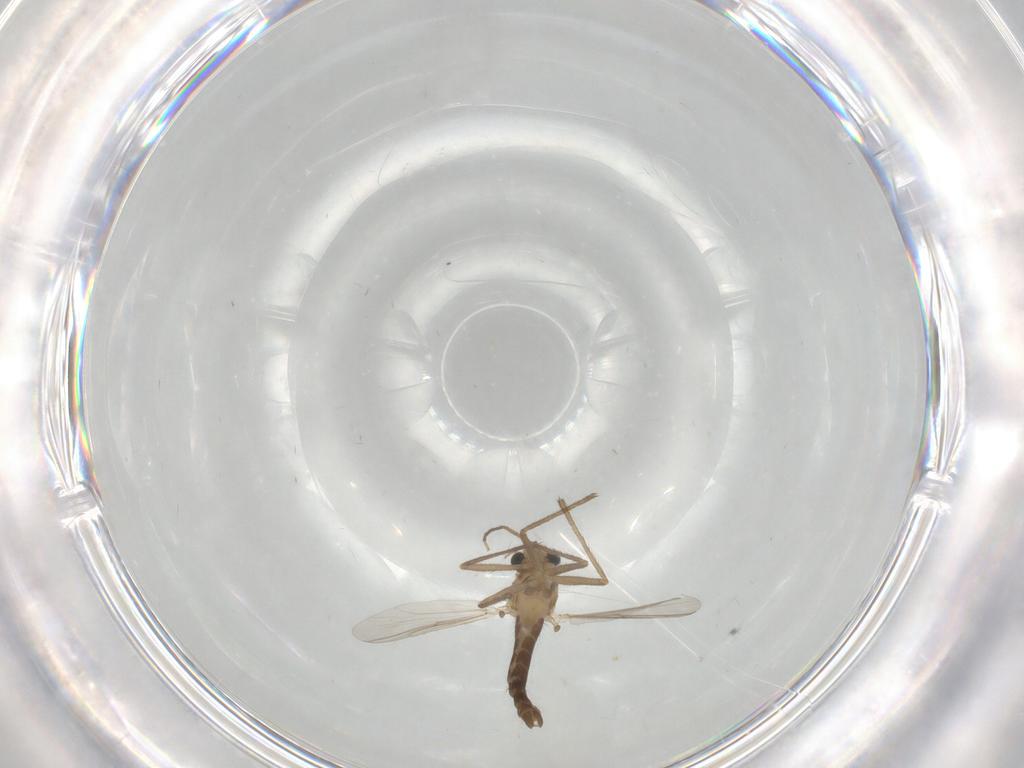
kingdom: Animalia
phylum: Arthropoda
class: Insecta
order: Diptera
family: Chironomidae
